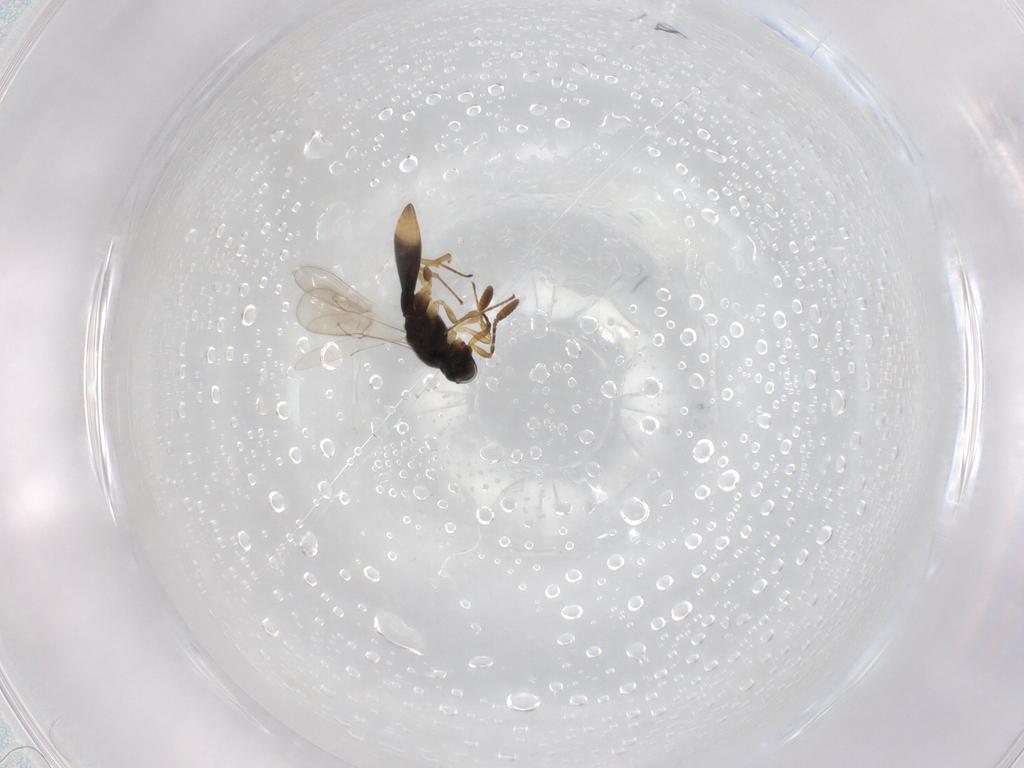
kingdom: Animalia
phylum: Arthropoda
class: Insecta
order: Hymenoptera
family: Scelionidae
